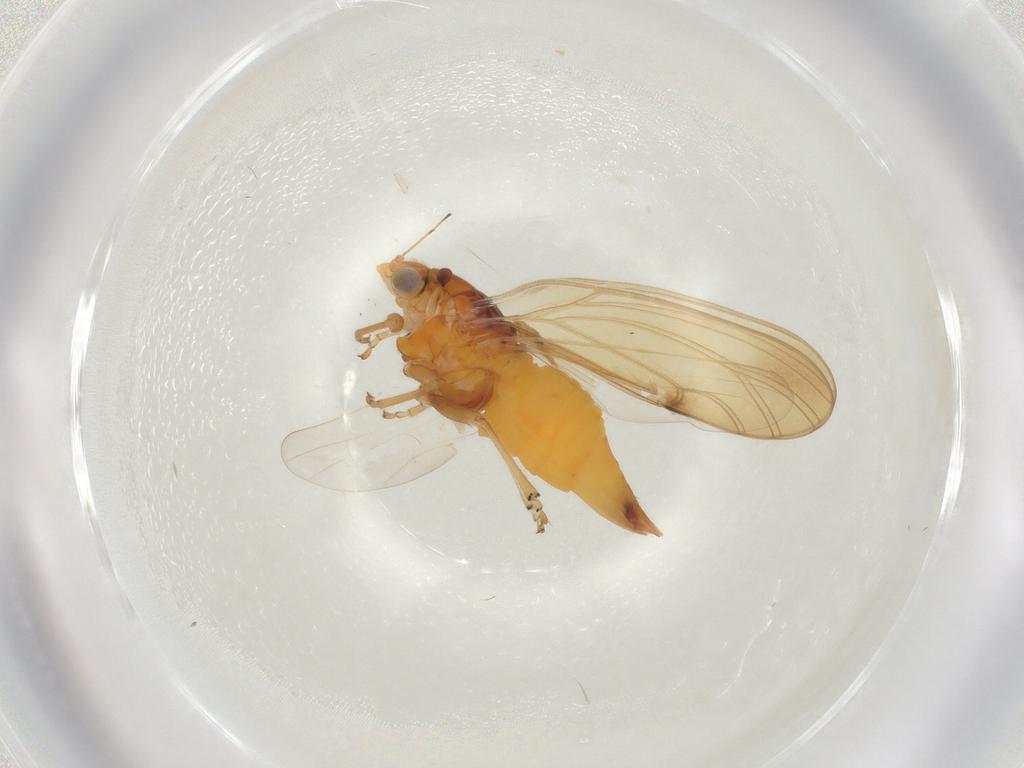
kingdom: Animalia
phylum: Arthropoda
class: Insecta
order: Hemiptera
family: Psylloidea_incertae_sedis
